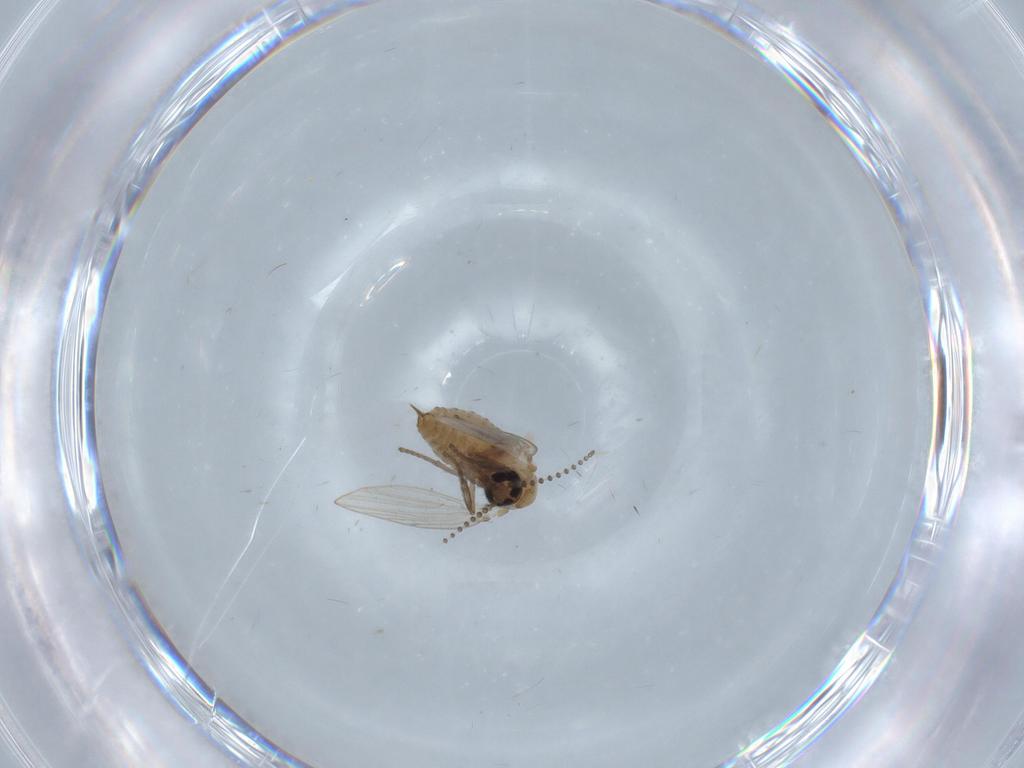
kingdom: Animalia
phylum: Arthropoda
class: Insecta
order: Diptera
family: Psychodidae
